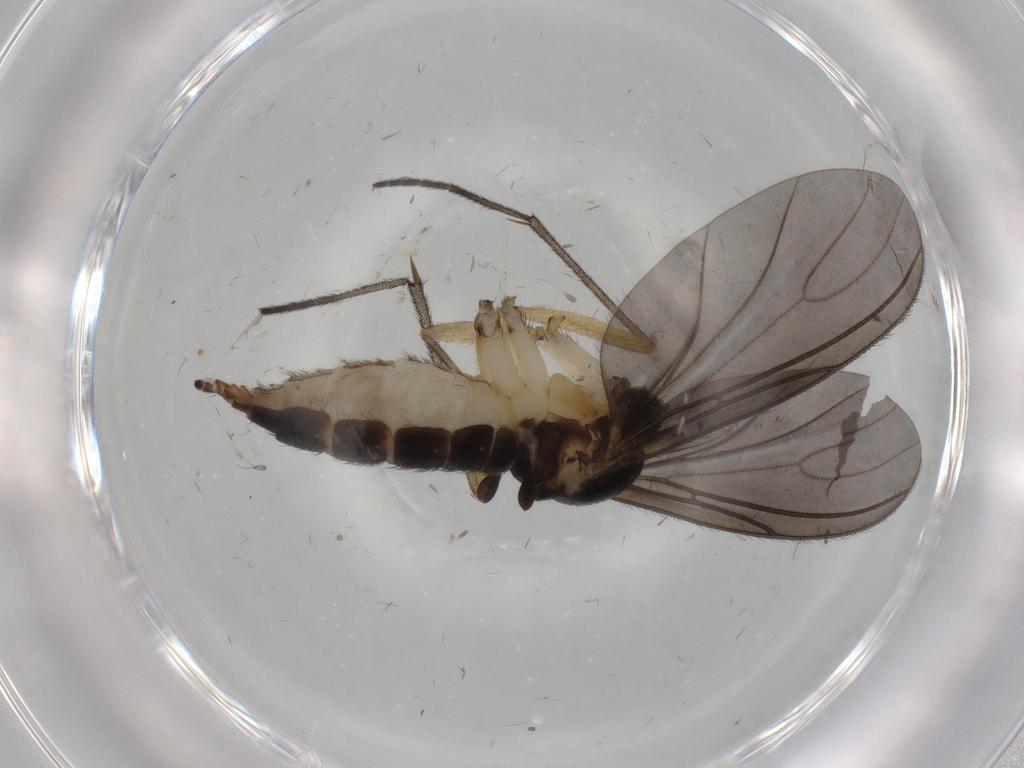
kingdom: Animalia
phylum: Arthropoda
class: Insecta
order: Diptera
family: Sciaridae
